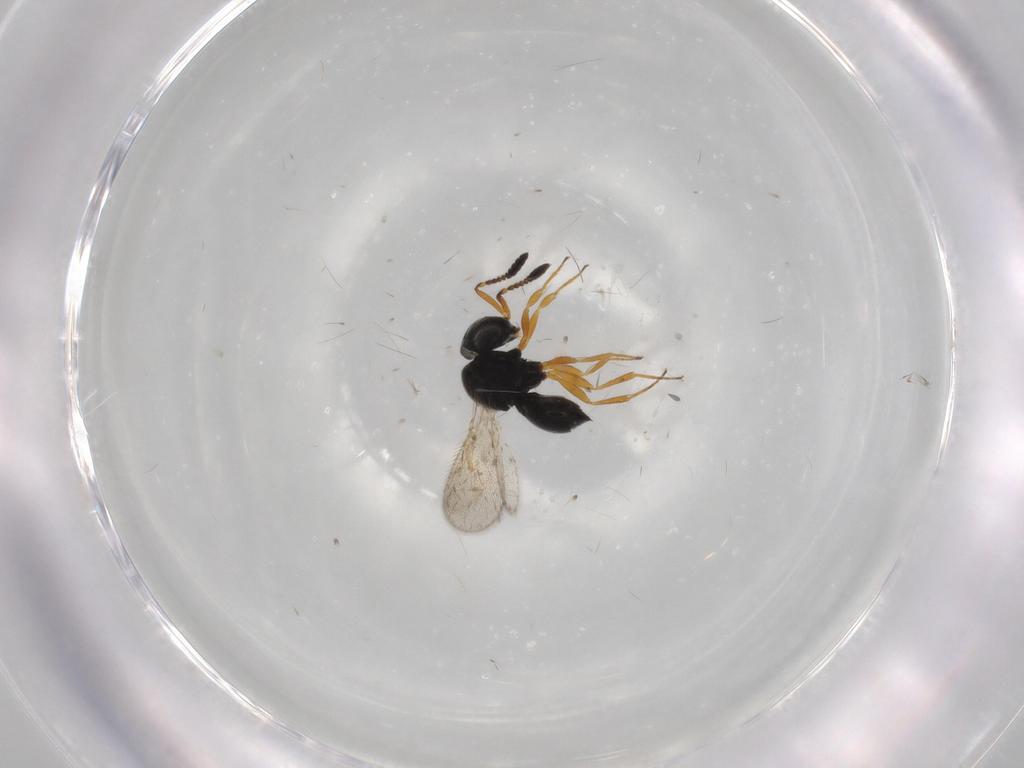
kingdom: Animalia
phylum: Arthropoda
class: Insecta
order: Hymenoptera
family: Scelionidae
